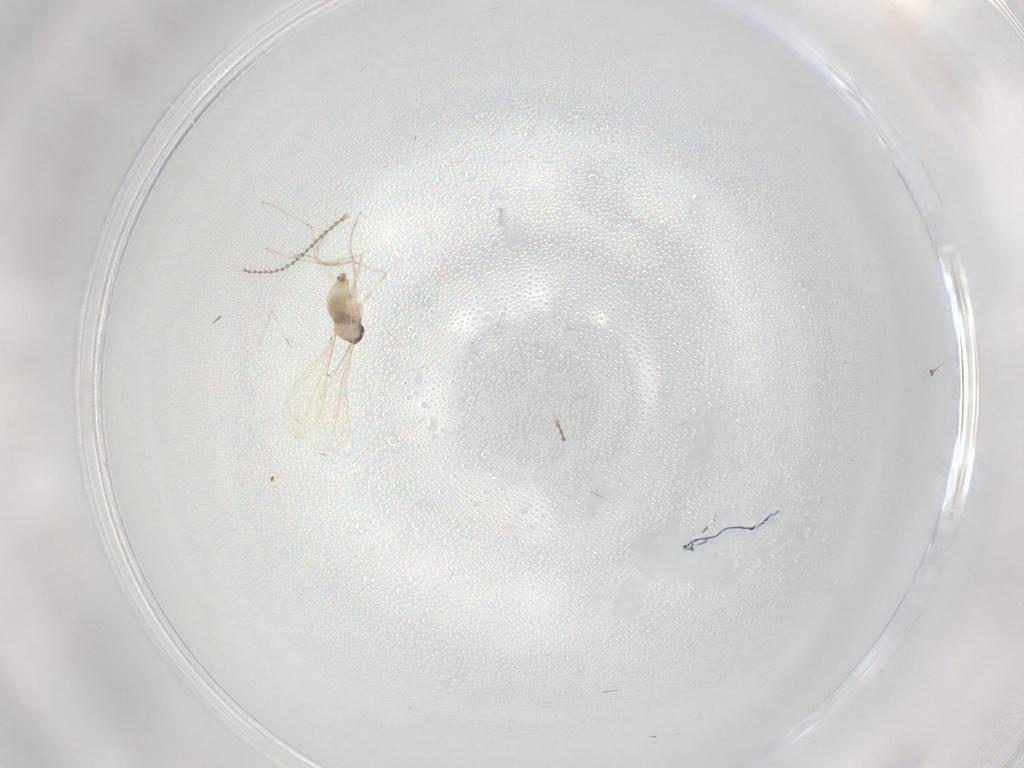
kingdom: Animalia
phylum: Arthropoda
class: Insecta
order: Diptera
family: Cecidomyiidae
